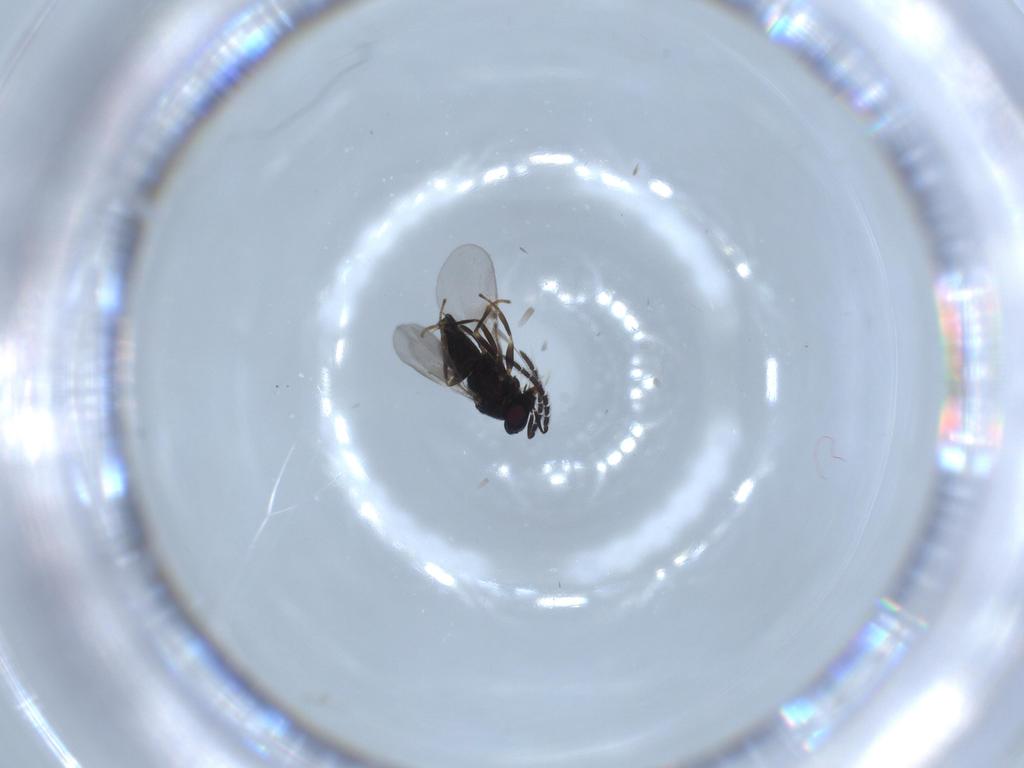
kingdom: Animalia
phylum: Arthropoda
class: Insecta
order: Hymenoptera
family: Encyrtidae
